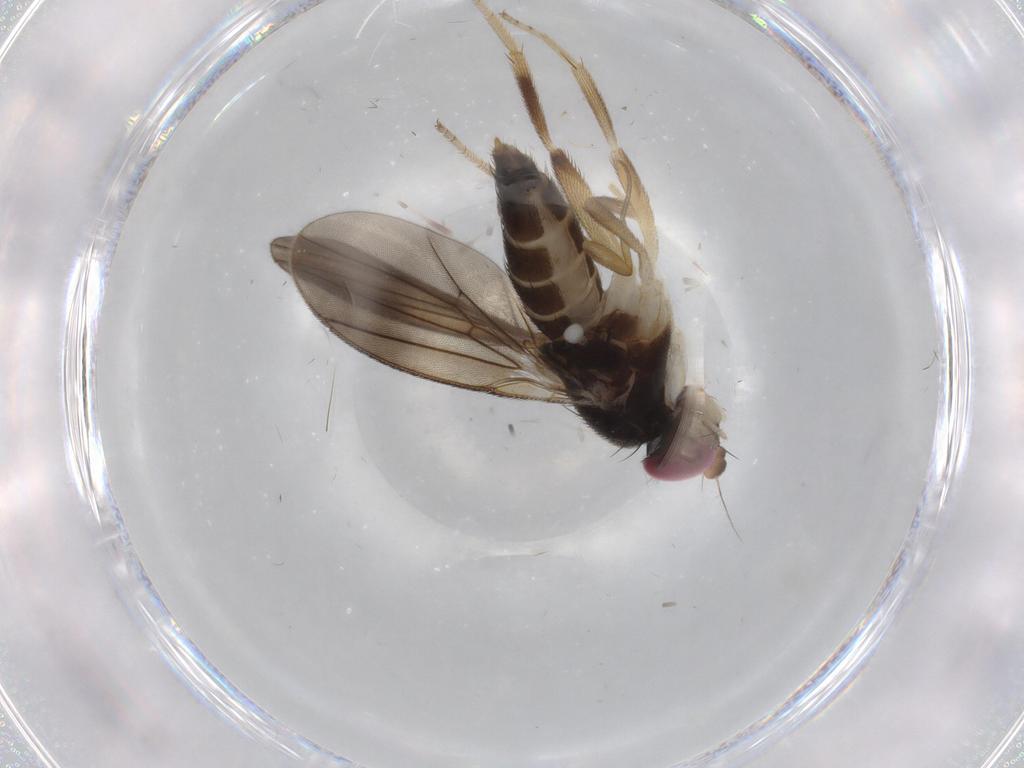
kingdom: Animalia
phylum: Arthropoda
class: Insecta
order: Diptera
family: Clusiidae
